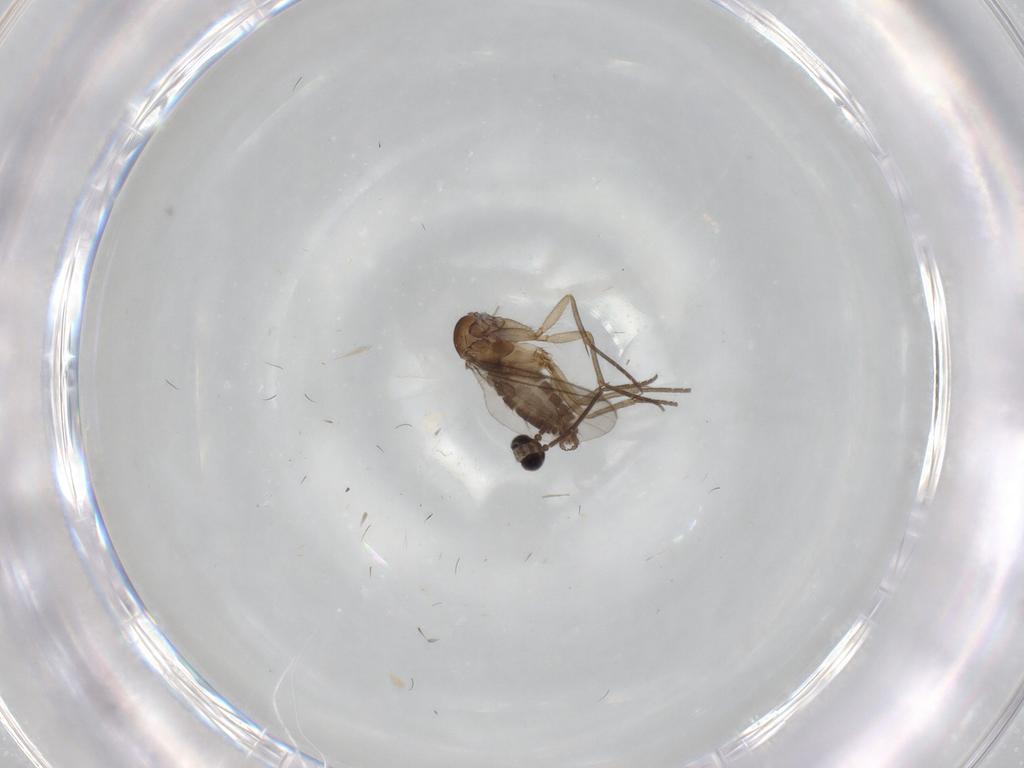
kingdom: Animalia
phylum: Arthropoda
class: Insecta
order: Diptera
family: Sciaridae
